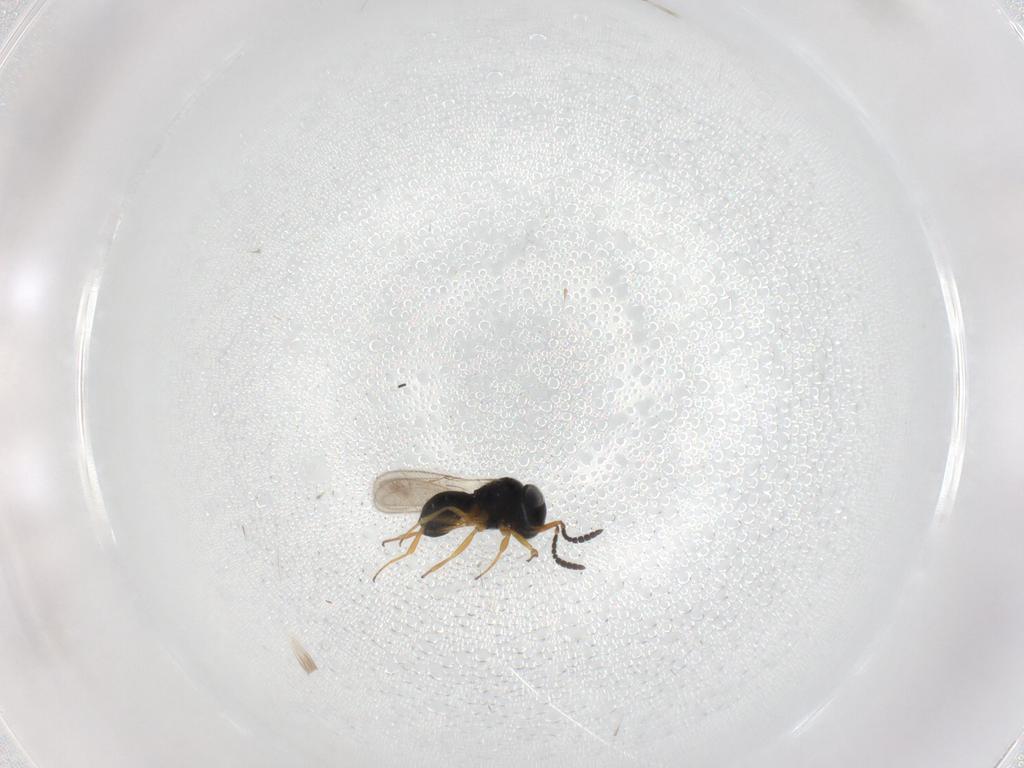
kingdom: Animalia
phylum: Arthropoda
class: Insecta
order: Hymenoptera
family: Scelionidae
